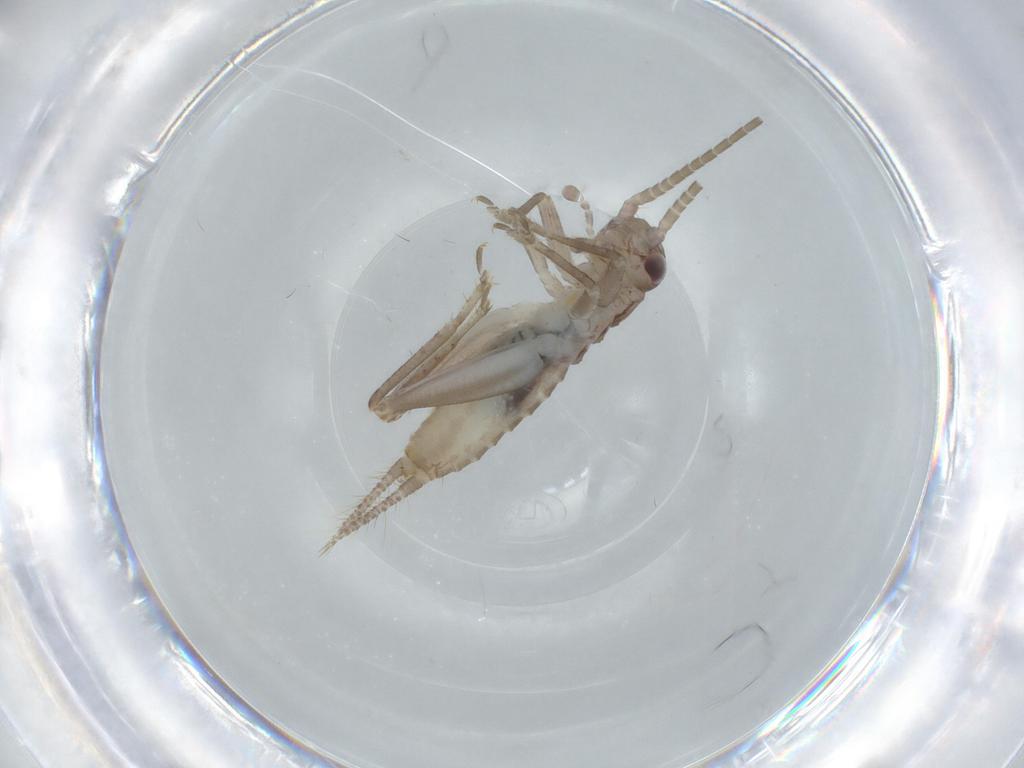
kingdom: Animalia
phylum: Arthropoda
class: Insecta
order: Orthoptera
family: Gryllidae
